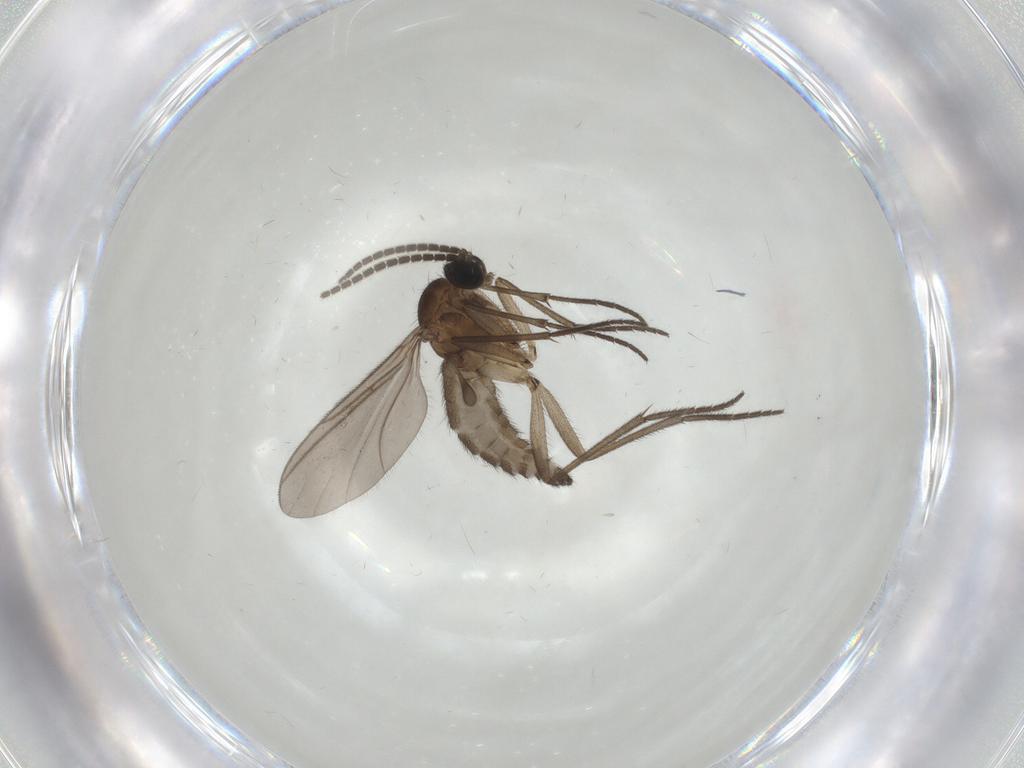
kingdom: Animalia
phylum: Arthropoda
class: Insecta
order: Diptera
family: Sciaridae
